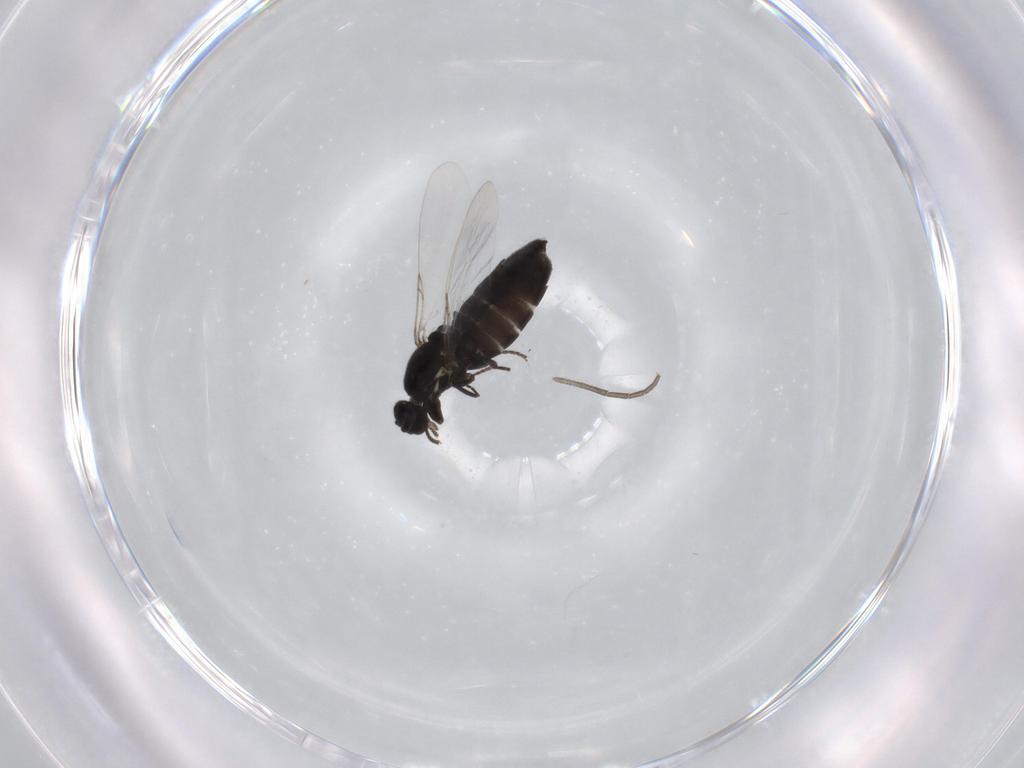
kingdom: Animalia
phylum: Arthropoda
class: Insecta
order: Diptera
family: Scatopsidae
